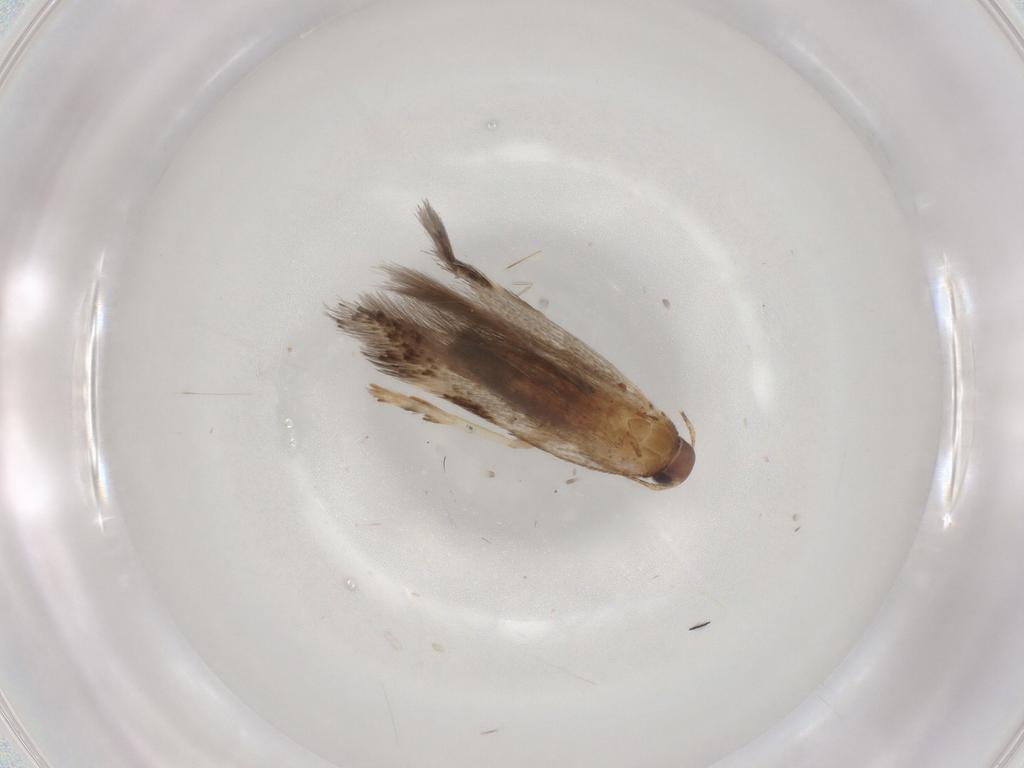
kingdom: Animalia
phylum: Arthropoda
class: Insecta
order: Lepidoptera
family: Gelechiidae
